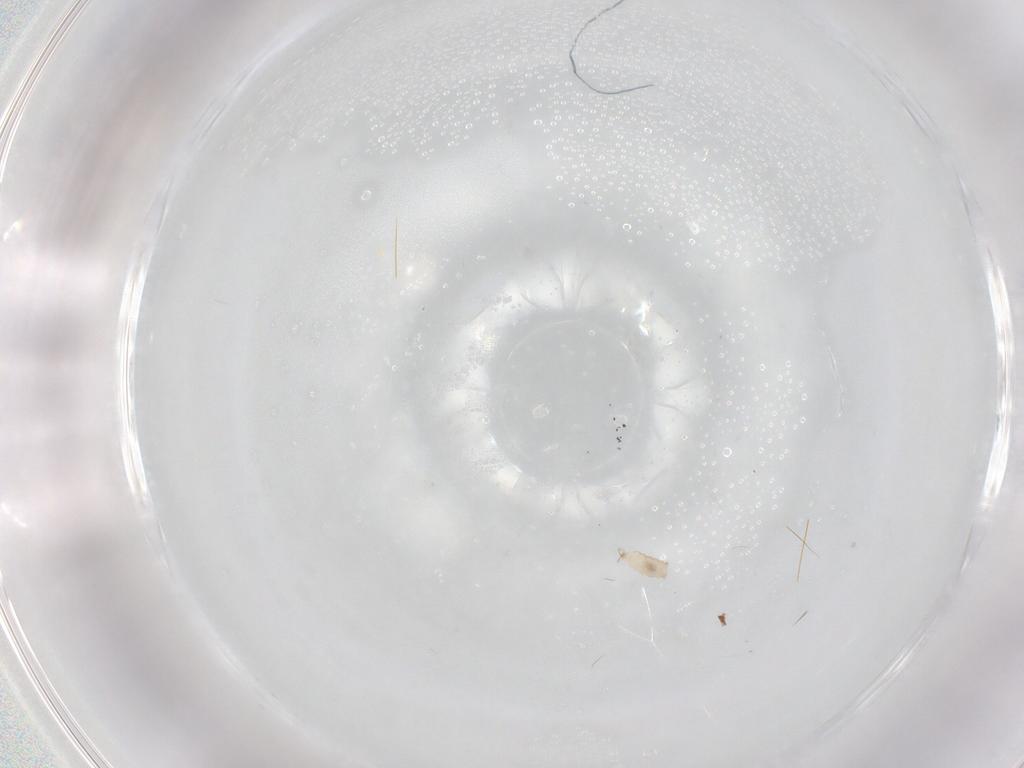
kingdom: Animalia
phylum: Arthropoda
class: Insecta
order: Diptera
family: Cecidomyiidae
